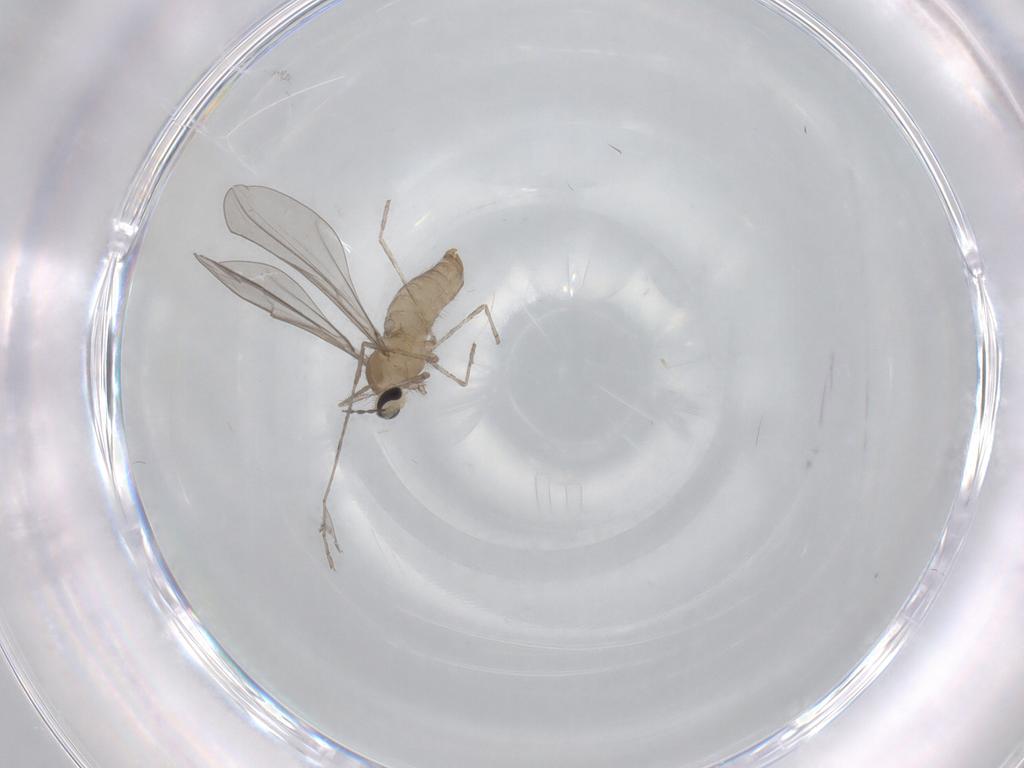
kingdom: Animalia
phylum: Arthropoda
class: Insecta
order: Diptera
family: Cecidomyiidae
